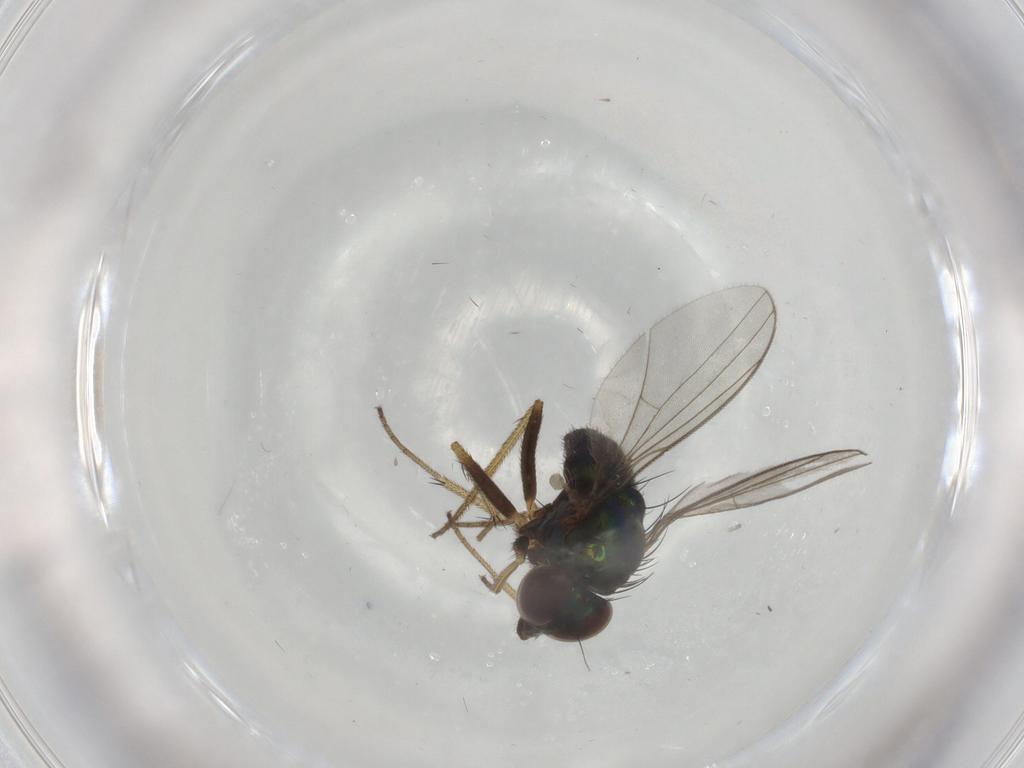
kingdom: Animalia
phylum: Arthropoda
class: Insecta
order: Diptera
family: Dolichopodidae
